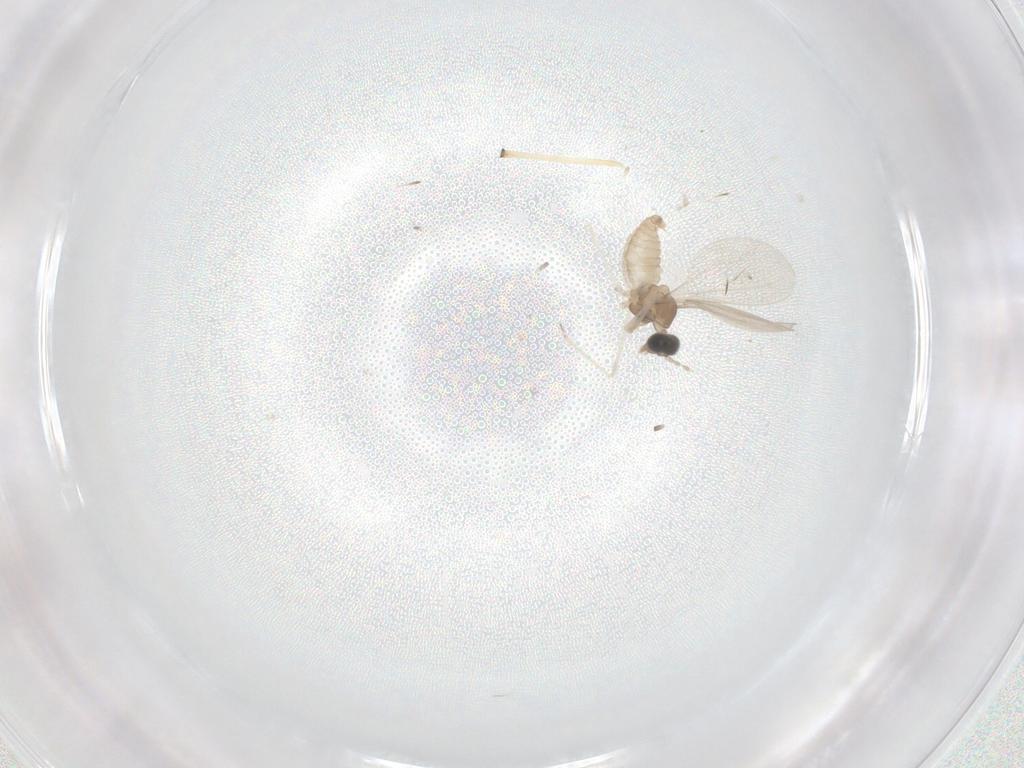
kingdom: Animalia
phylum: Arthropoda
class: Insecta
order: Diptera
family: Cecidomyiidae
